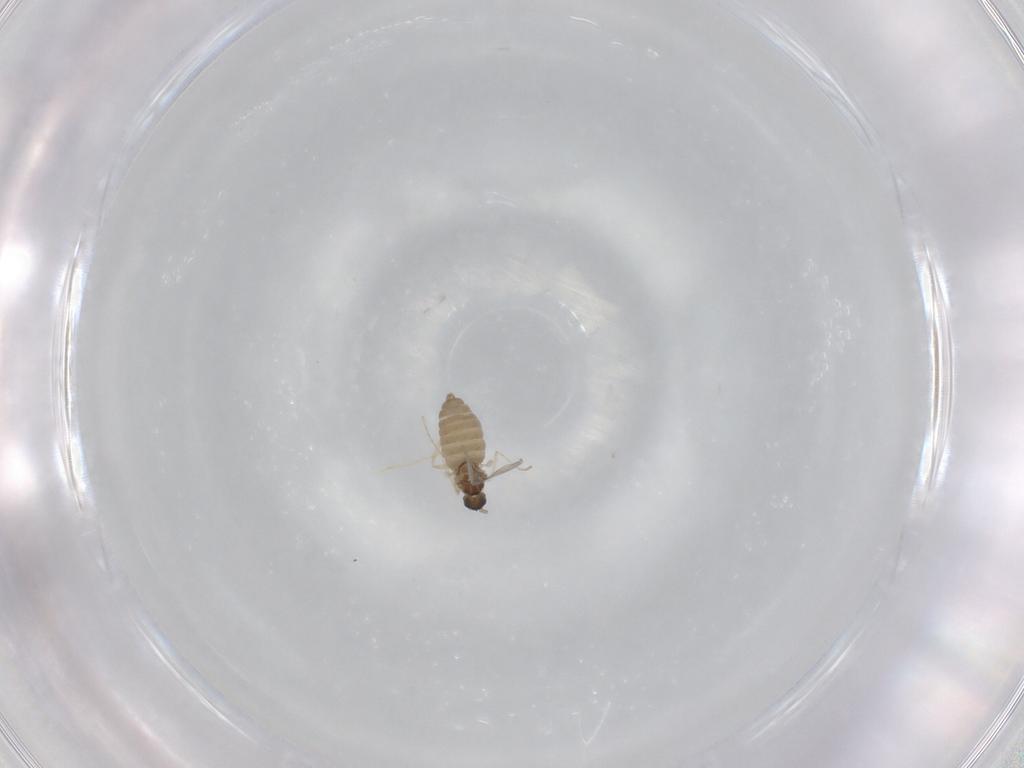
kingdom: Animalia
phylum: Arthropoda
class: Insecta
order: Diptera
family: Cecidomyiidae
